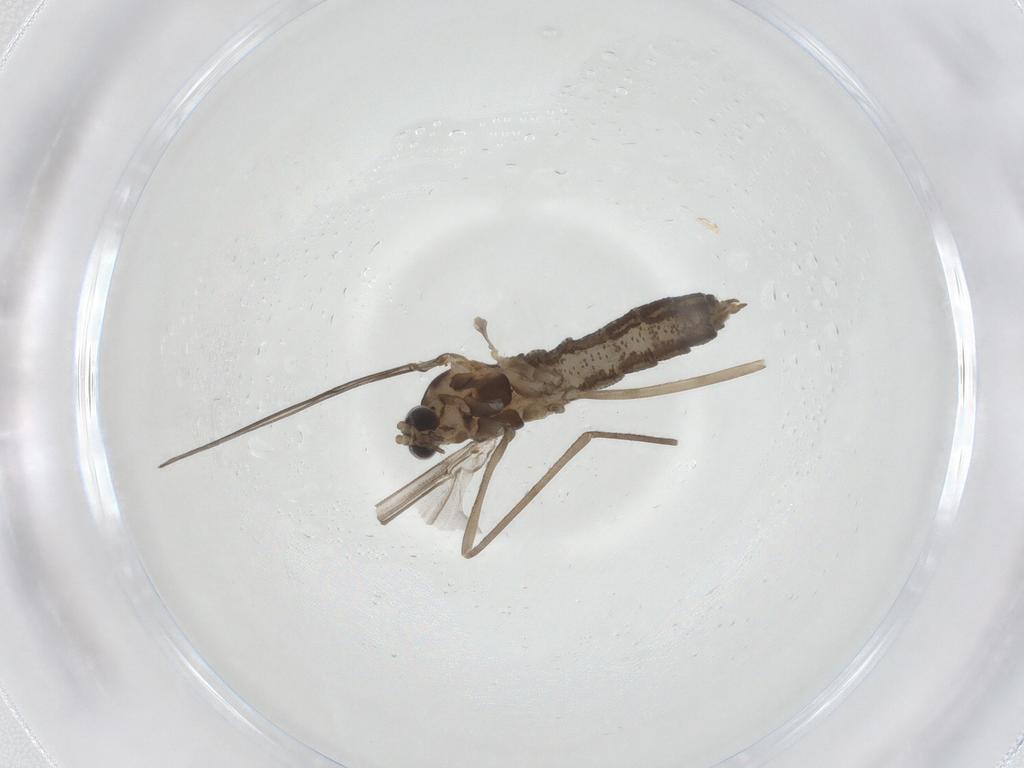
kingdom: Animalia
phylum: Arthropoda
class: Insecta
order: Diptera
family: Cecidomyiidae
